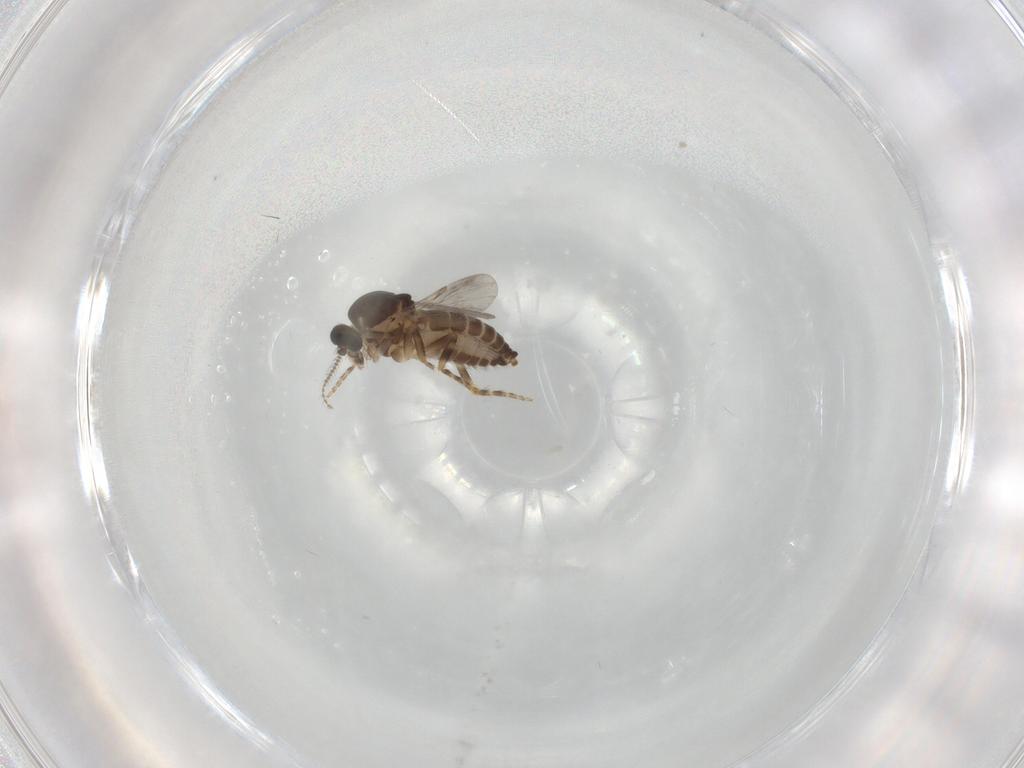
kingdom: Animalia
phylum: Arthropoda
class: Insecta
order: Diptera
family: Ceratopogonidae
